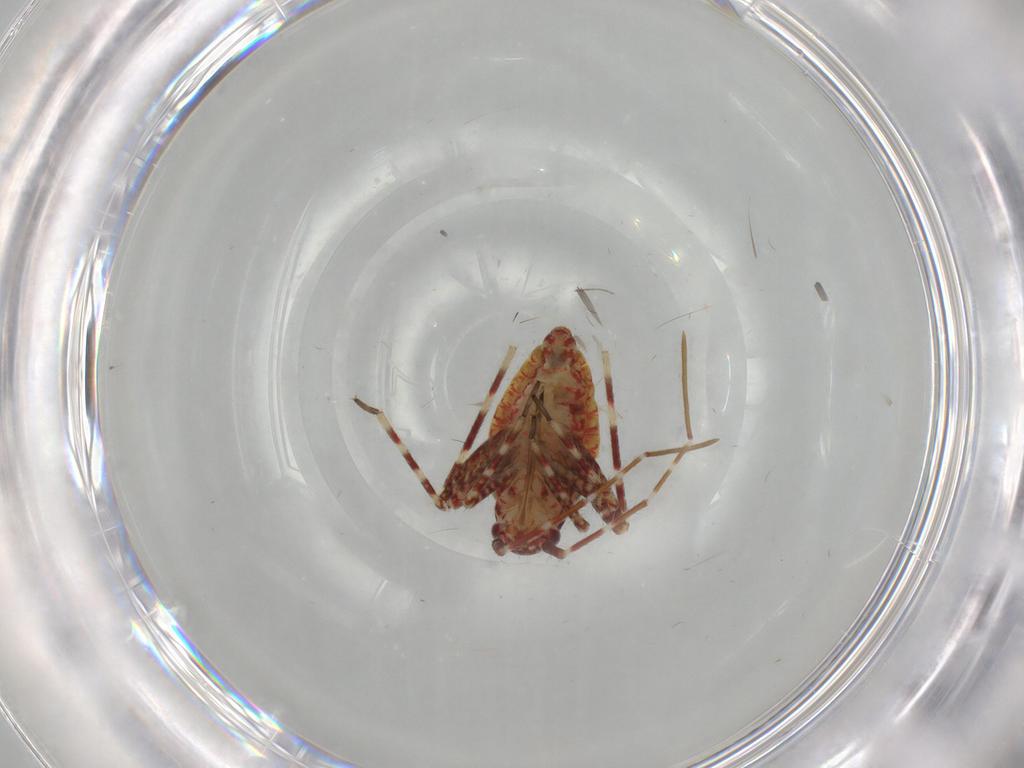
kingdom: Animalia
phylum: Arthropoda
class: Insecta
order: Hemiptera
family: Miridae
